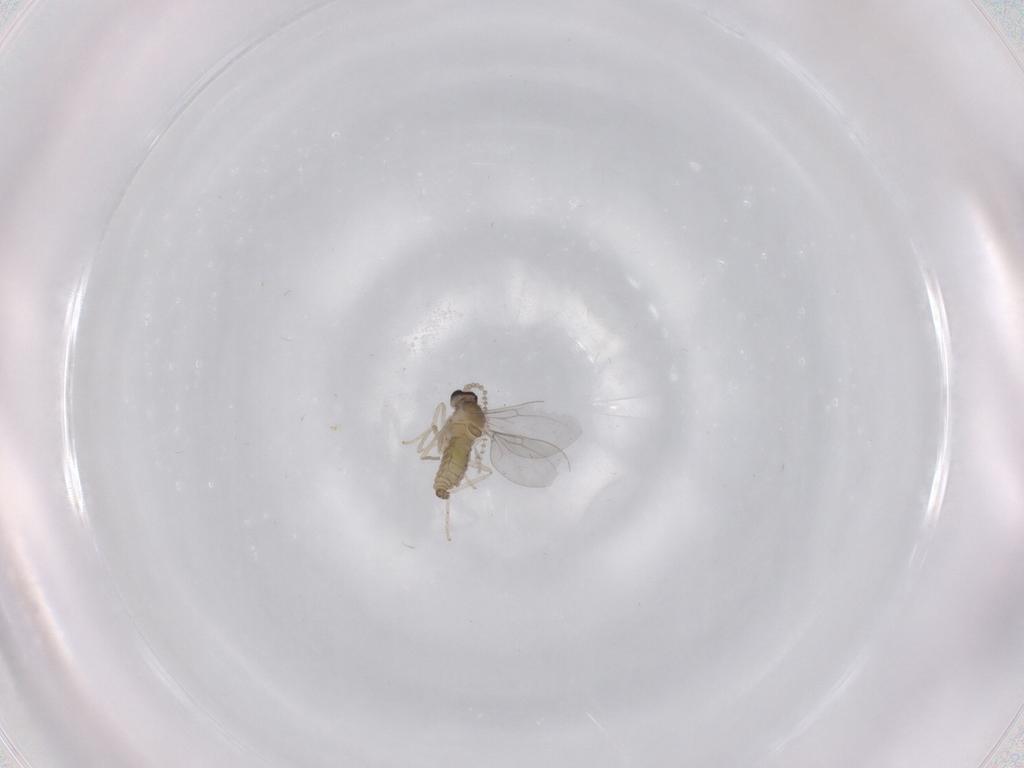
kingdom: Animalia
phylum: Arthropoda
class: Insecta
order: Diptera
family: Cecidomyiidae
